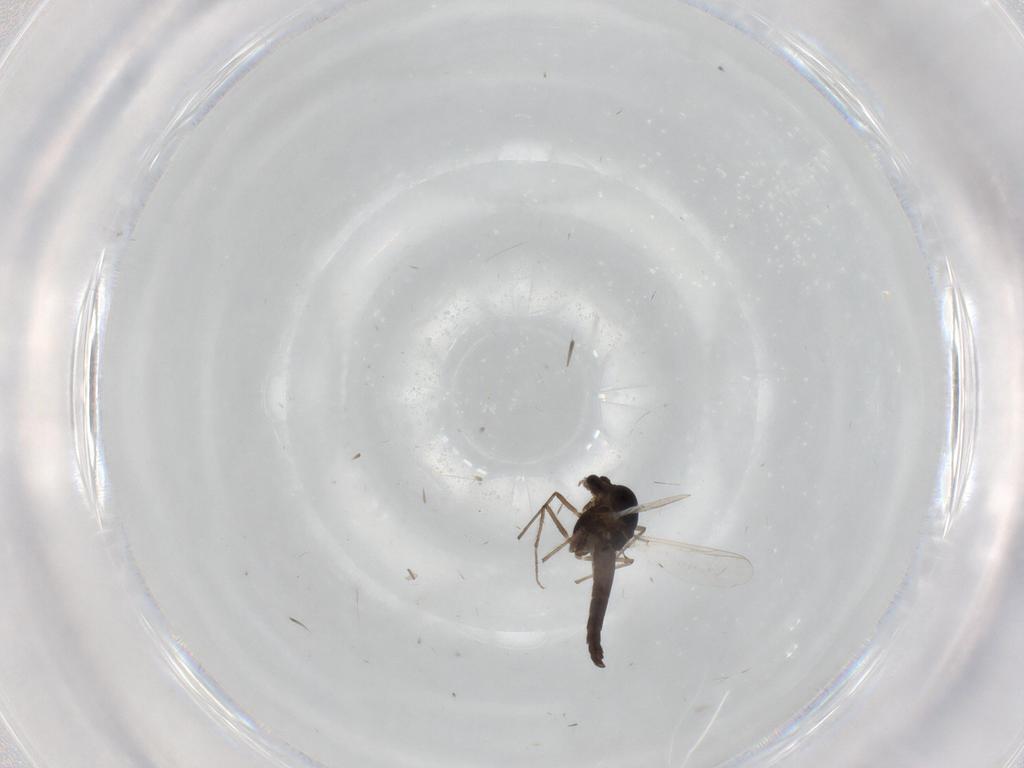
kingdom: Animalia
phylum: Arthropoda
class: Insecta
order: Diptera
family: Chironomidae
